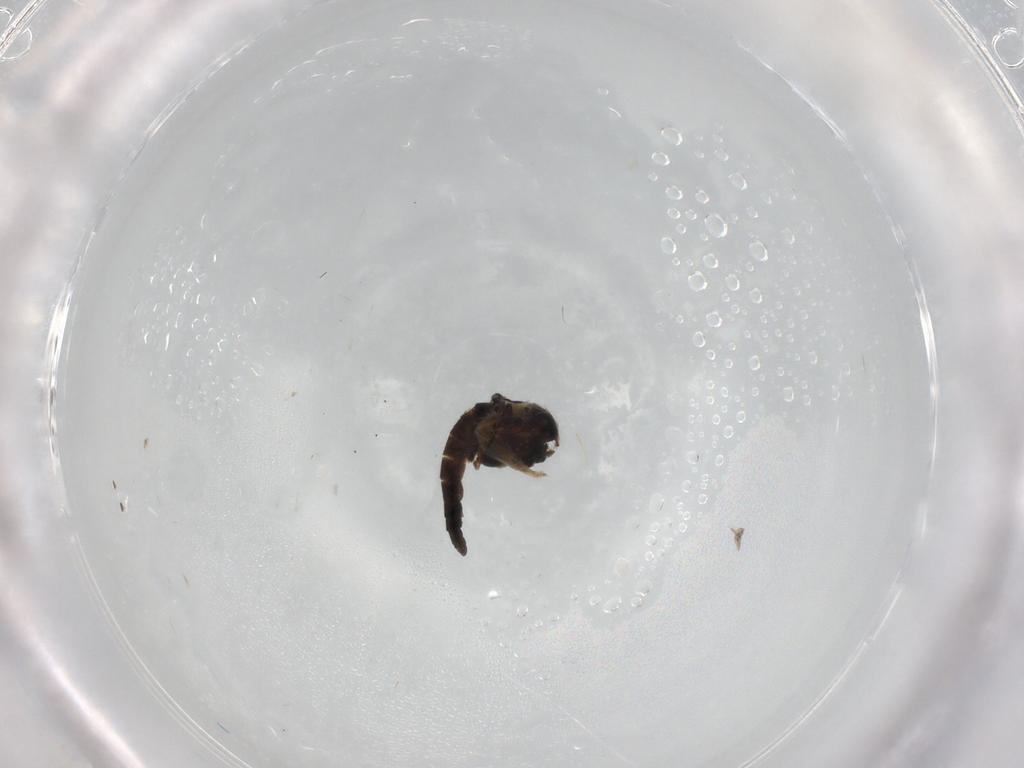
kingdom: Animalia
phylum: Arthropoda
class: Insecta
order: Diptera
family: Chironomidae
